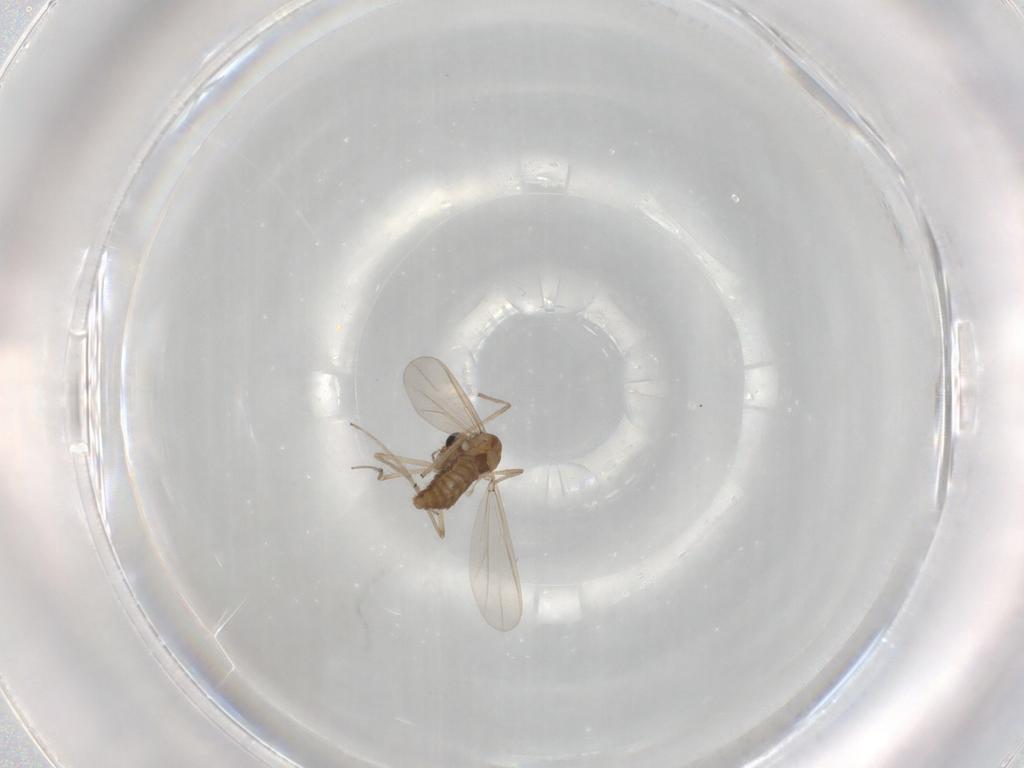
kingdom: Animalia
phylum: Arthropoda
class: Insecta
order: Diptera
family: Chironomidae
